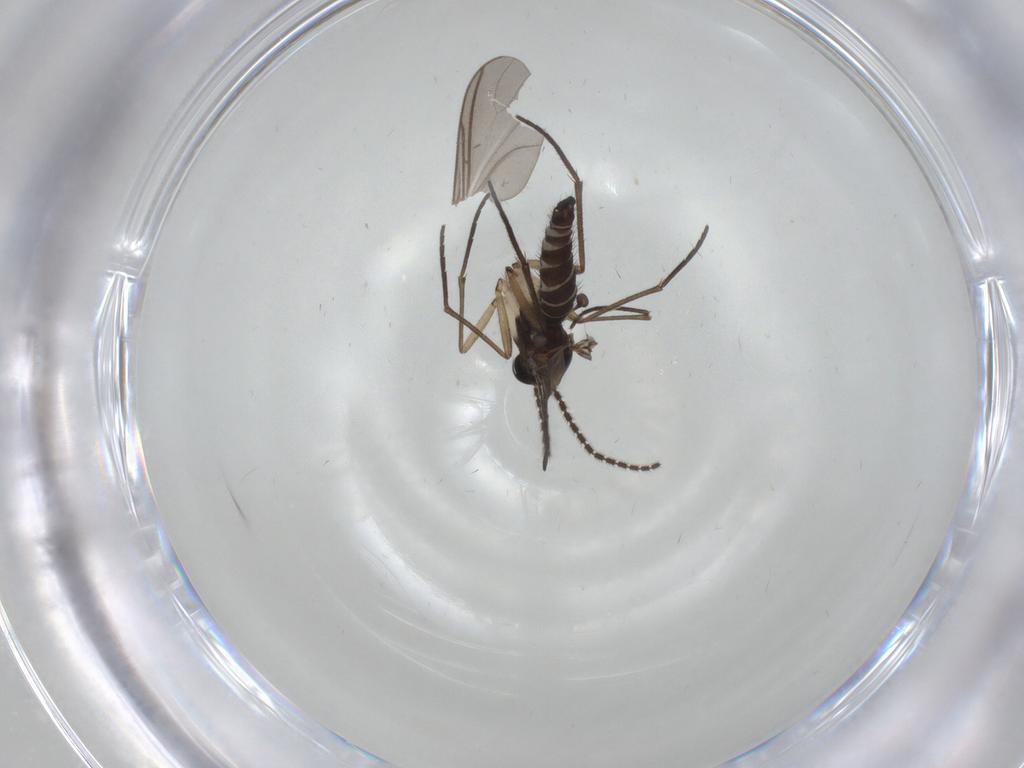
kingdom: Animalia
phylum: Arthropoda
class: Insecta
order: Diptera
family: Sciaridae
